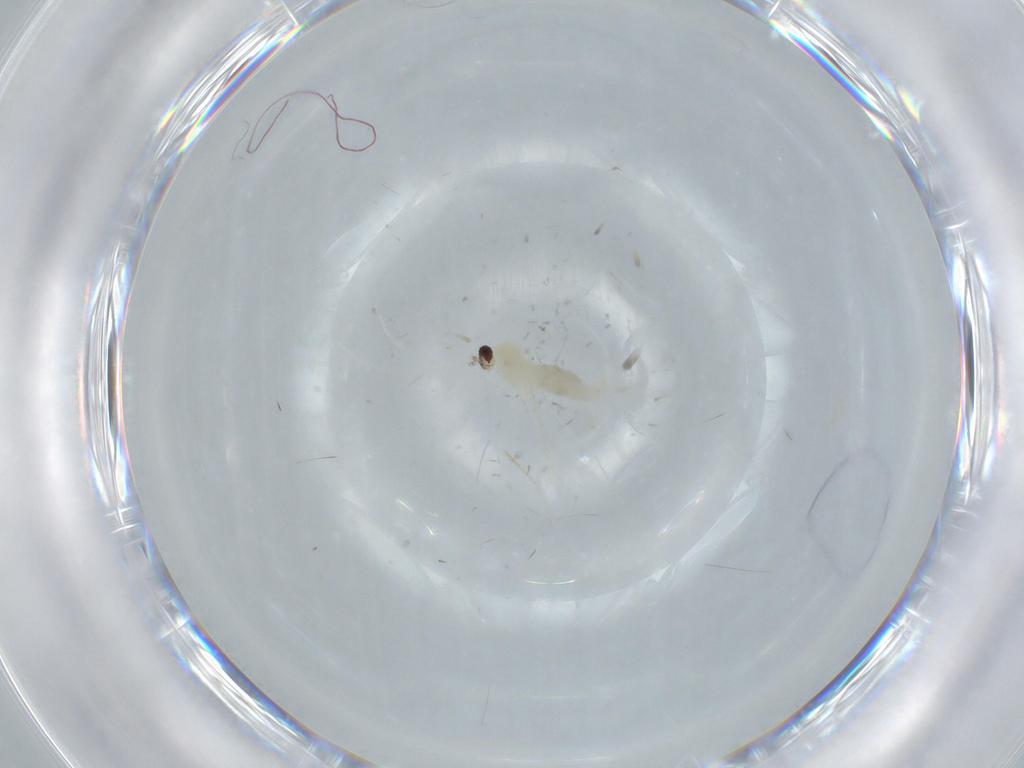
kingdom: Animalia
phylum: Arthropoda
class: Insecta
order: Diptera
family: Cecidomyiidae
